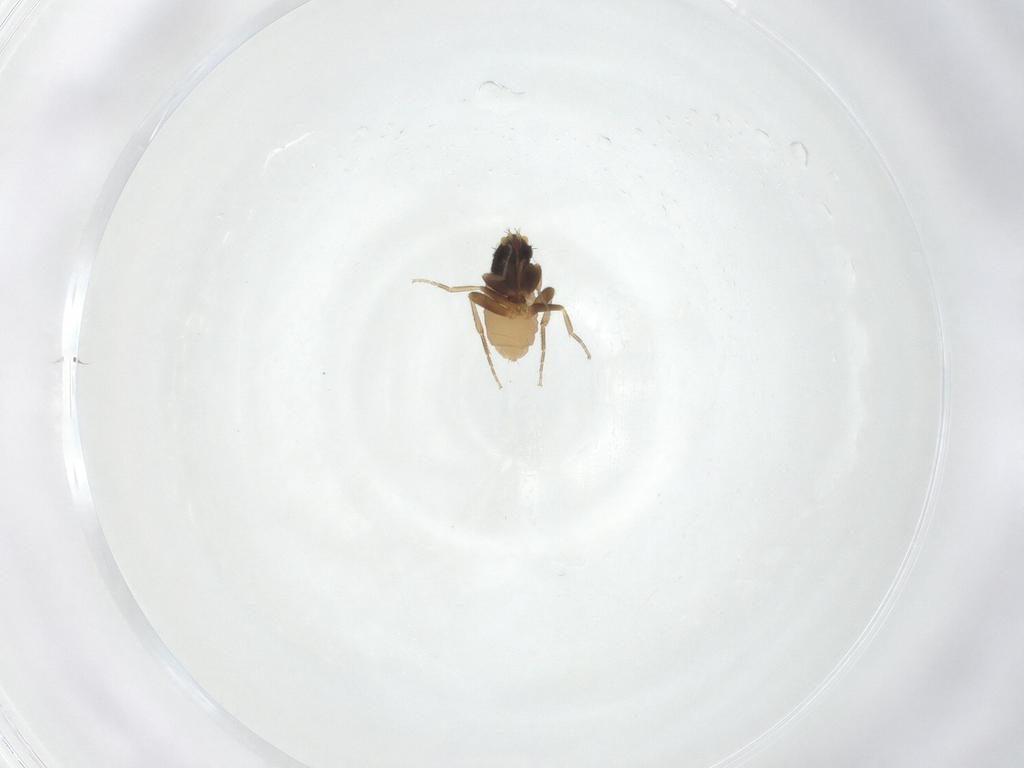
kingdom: Animalia
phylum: Arthropoda
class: Insecta
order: Diptera
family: Phoridae
